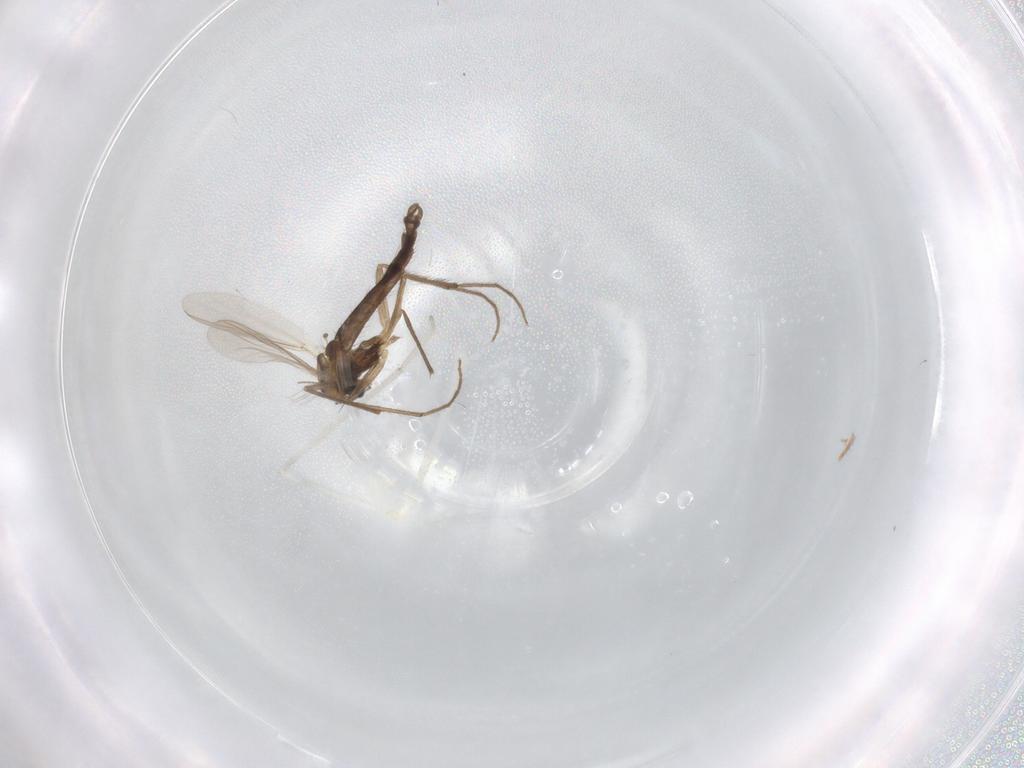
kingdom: Animalia
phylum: Arthropoda
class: Insecta
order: Diptera
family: Chironomidae
